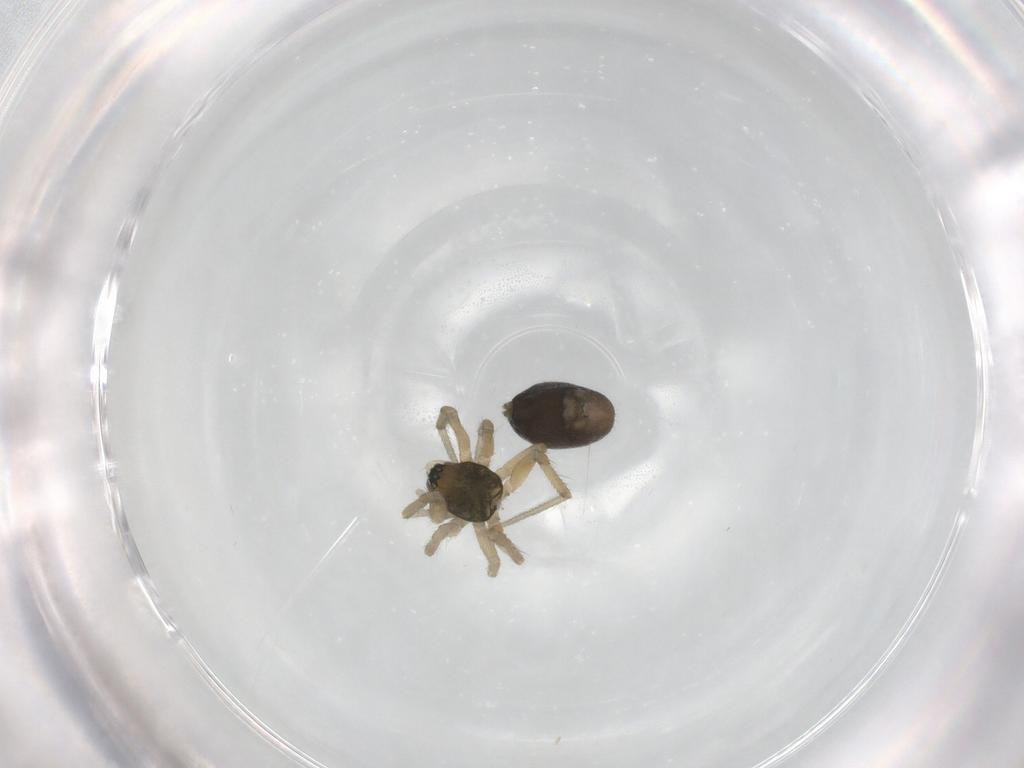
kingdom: Animalia
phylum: Arthropoda
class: Arachnida
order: Araneae
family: Linyphiidae
